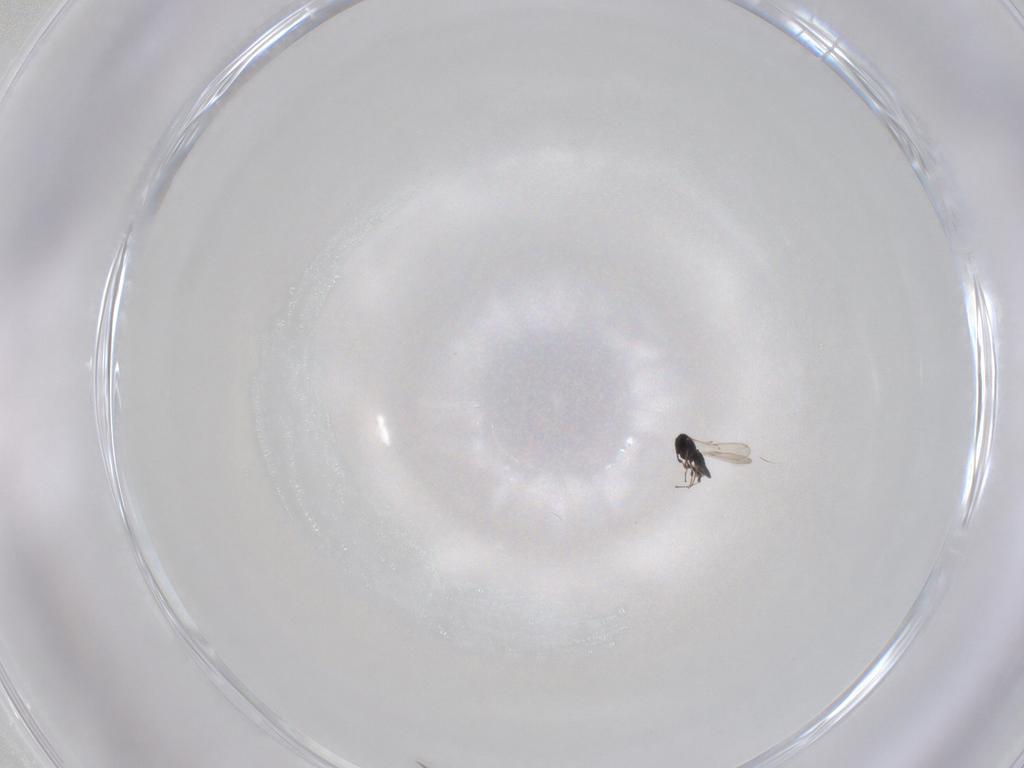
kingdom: Animalia
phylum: Arthropoda
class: Insecta
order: Hymenoptera
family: Scelionidae
